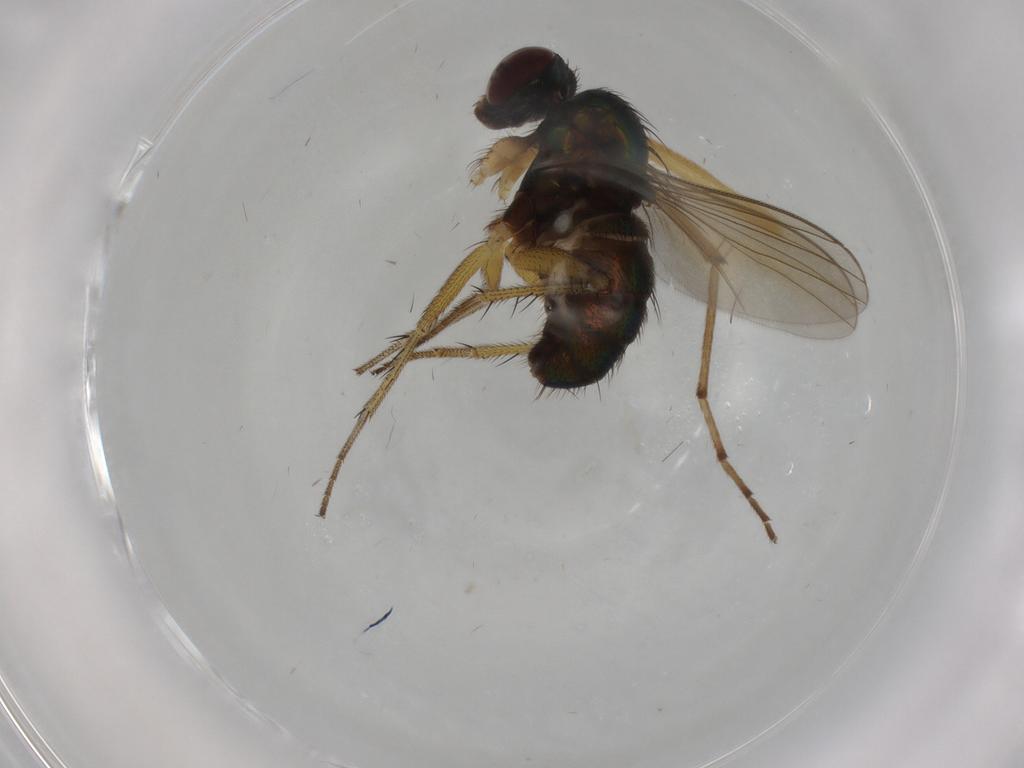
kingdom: Animalia
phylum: Arthropoda
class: Insecta
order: Diptera
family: Dolichopodidae
